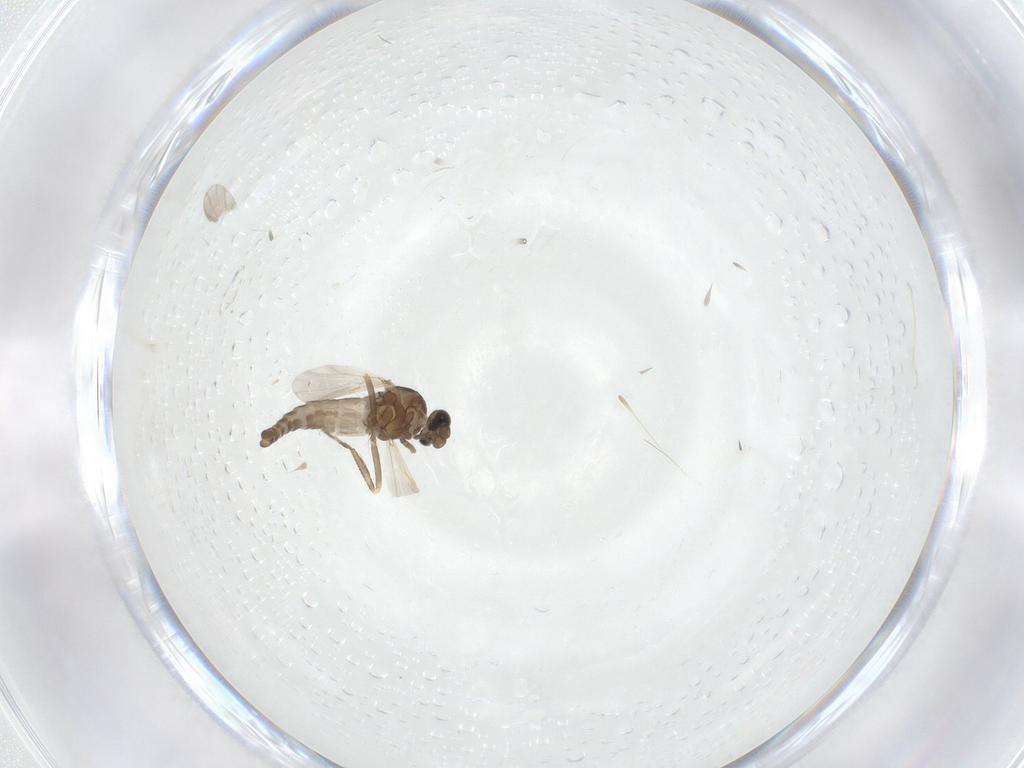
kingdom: Animalia
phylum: Arthropoda
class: Insecta
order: Diptera
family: Ceratopogonidae
